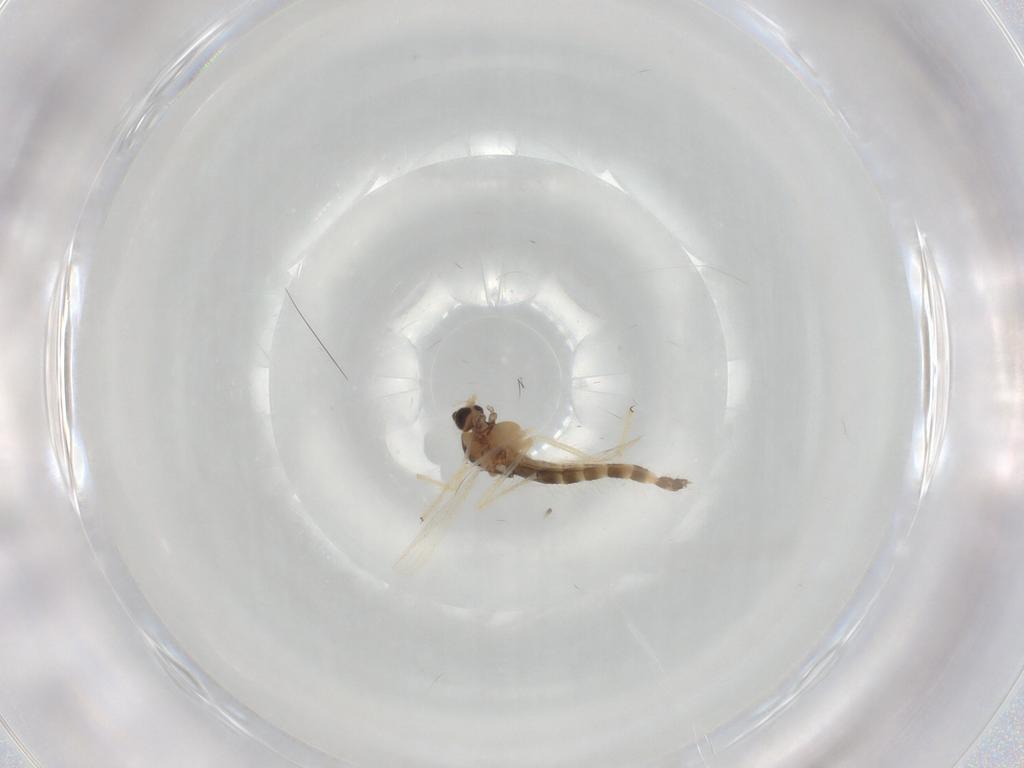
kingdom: Animalia
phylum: Arthropoda
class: Insecta
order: Diptera
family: Chironomidae
